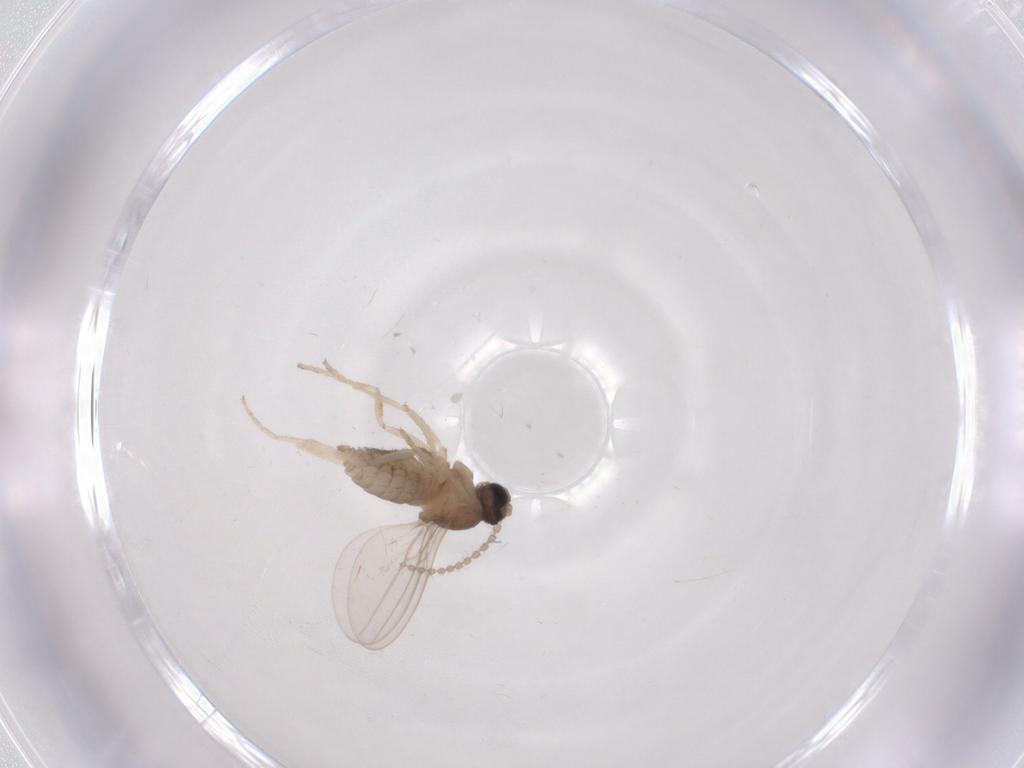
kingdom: Animalia
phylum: Arthropoda
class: Insecta
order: Diptera
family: Cecidomyiidae
